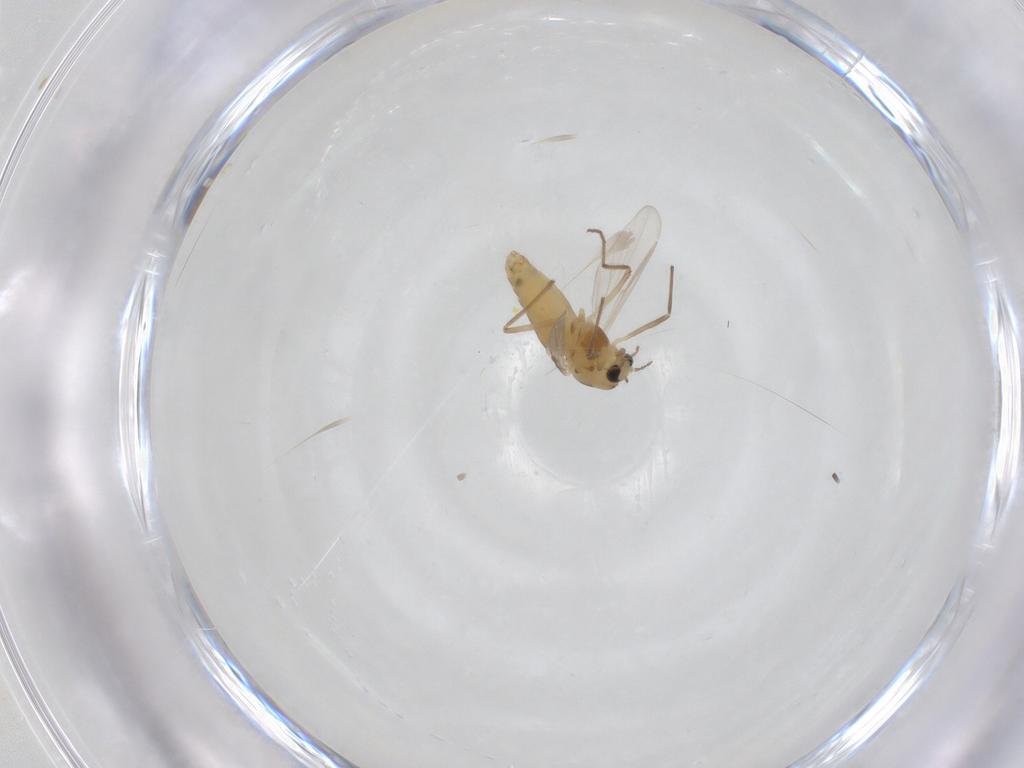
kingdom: Animalia
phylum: Arthropoda
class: Insecta
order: Diptera
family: Chironomidae
